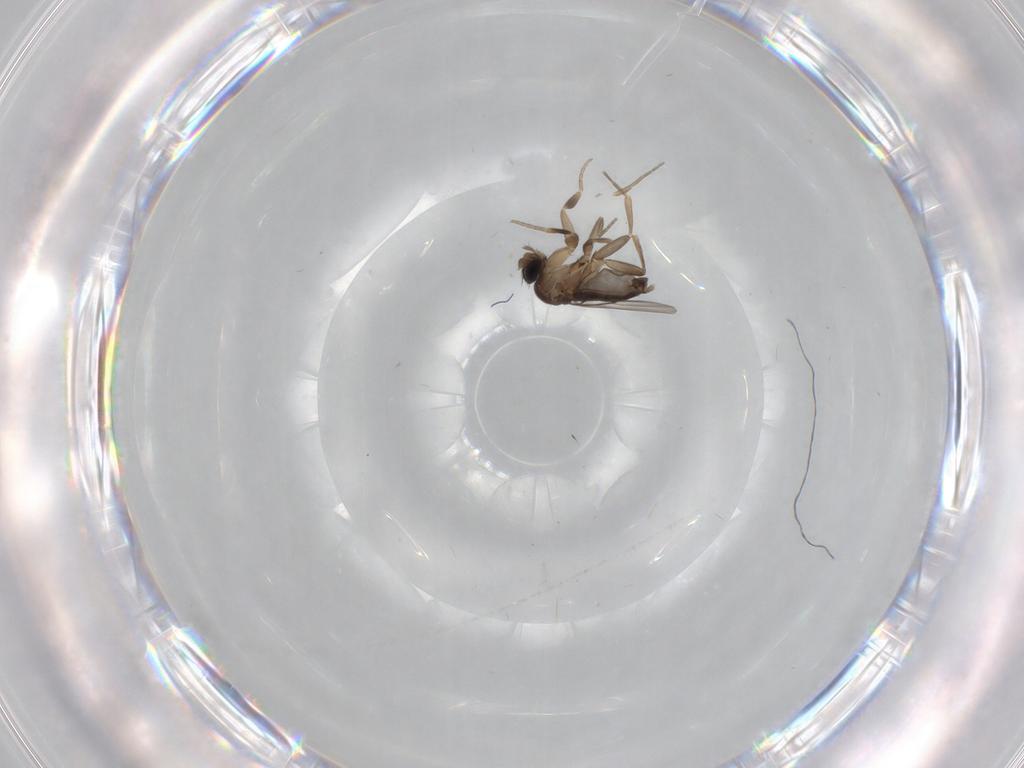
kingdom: Animalia
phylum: Arthropoda
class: Insecta
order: Diptera
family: Phoridae
